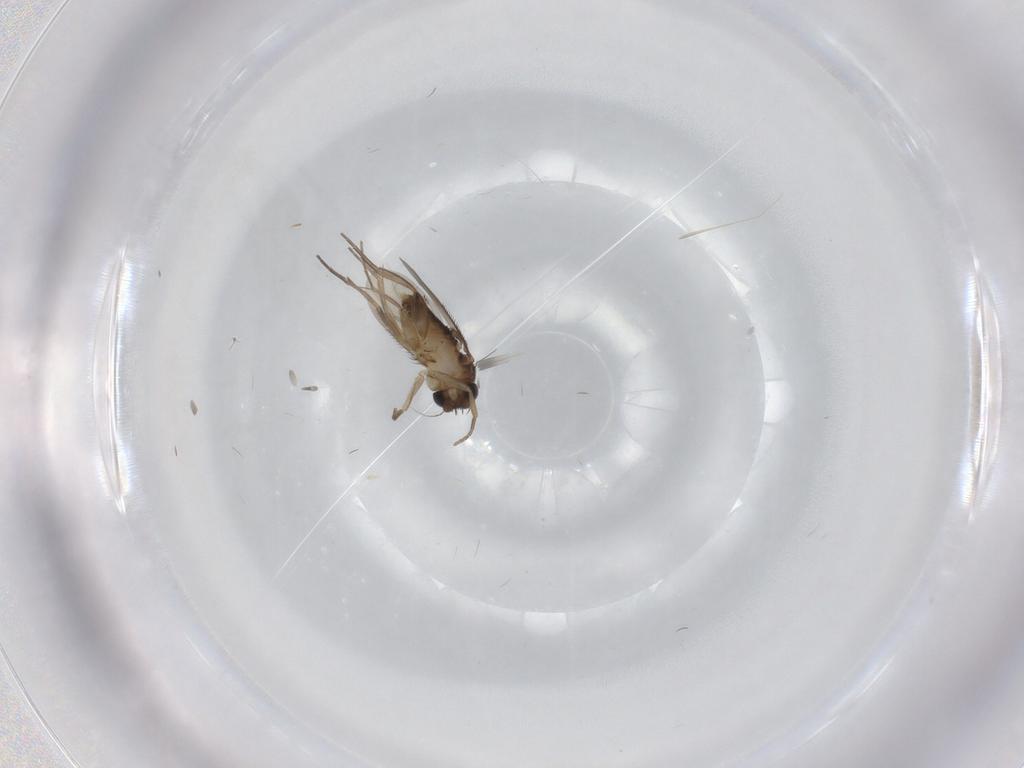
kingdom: Animalia
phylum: Arthropoda
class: Insecta
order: Diptera
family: Phoridae
